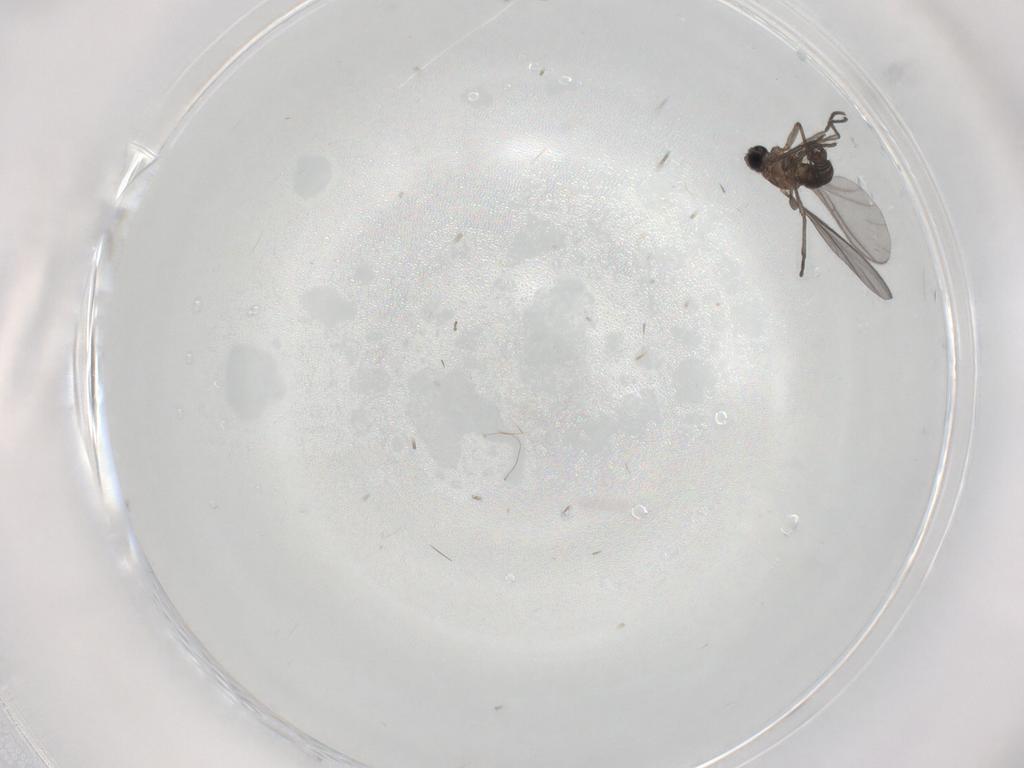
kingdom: Animalia
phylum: Arthropoda
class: Insecta
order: Diptera
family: Sciaridae
